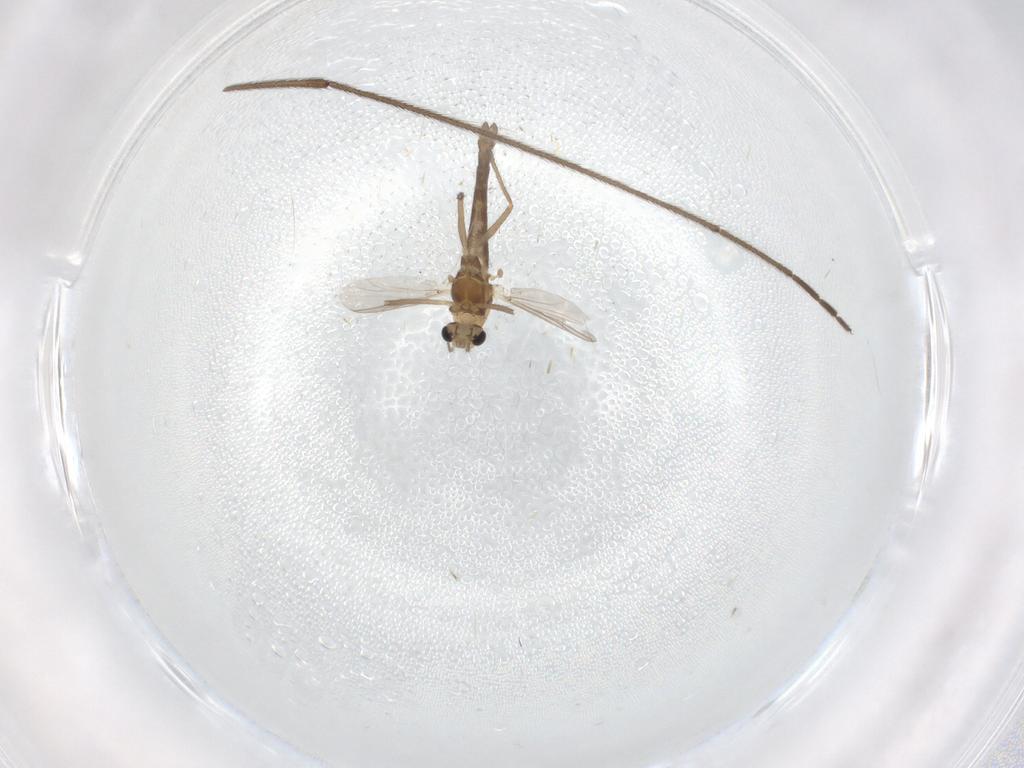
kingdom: Animalia
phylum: Arthropoda
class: Insecta
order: Diptera
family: Chironomidae
